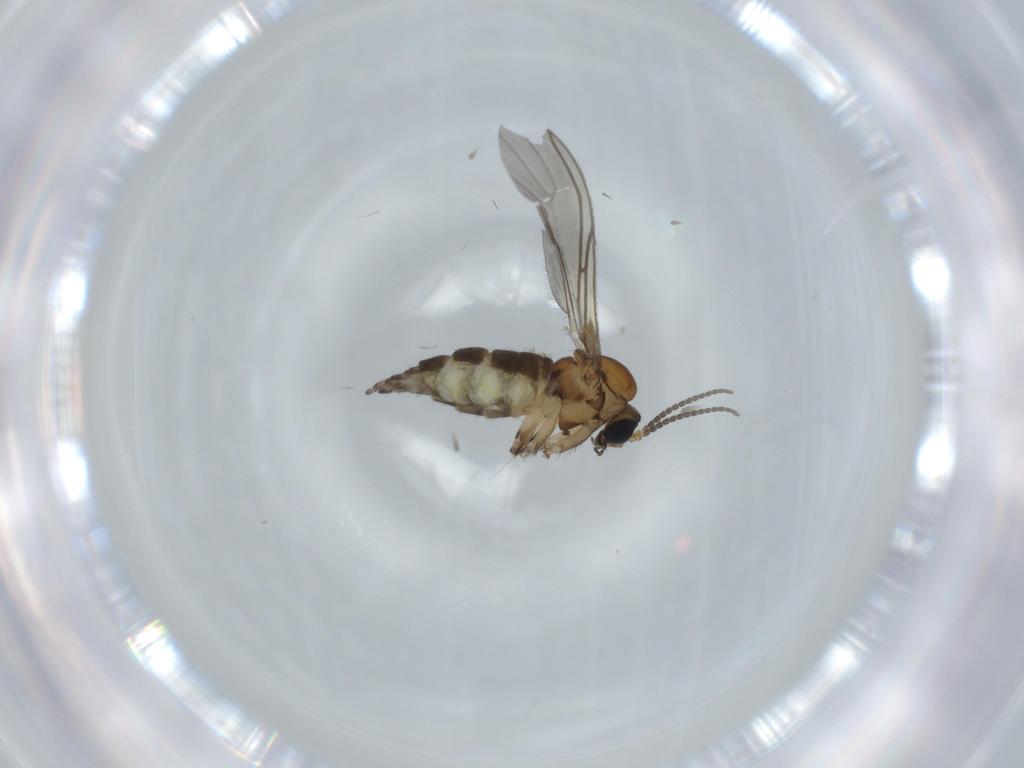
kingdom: Animalia
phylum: Arthropoda
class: Insecta
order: Diptera
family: Sciaridae
